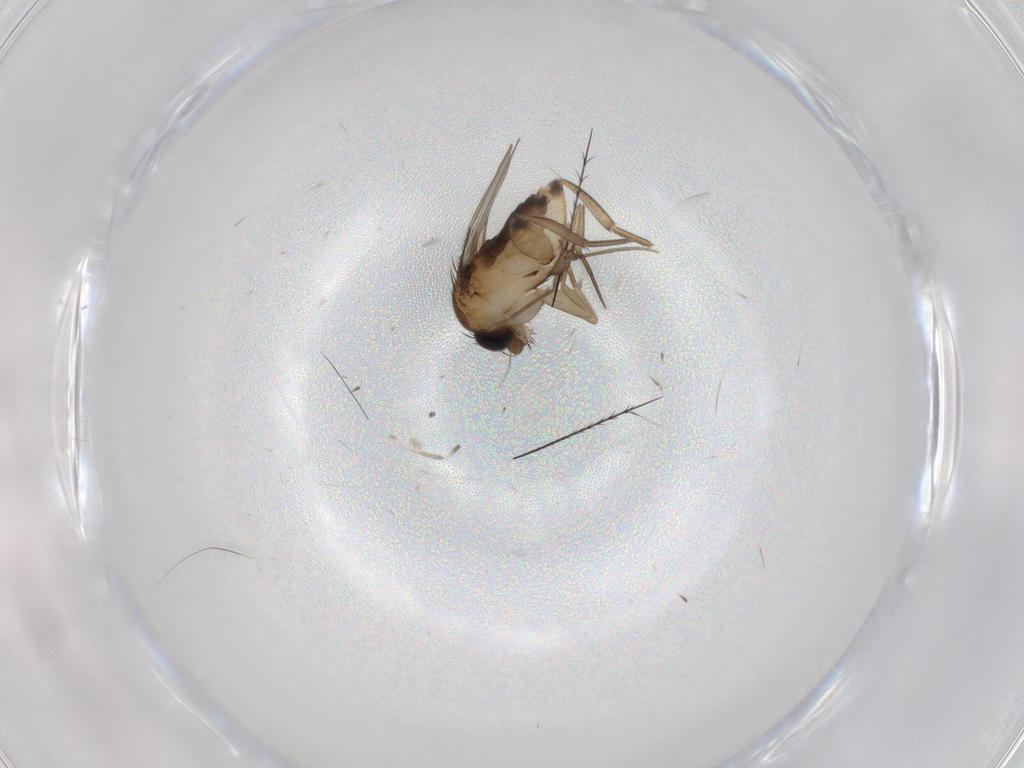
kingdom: Animalia
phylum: Arthropoda
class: Insecta
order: Diptera
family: Phoridae
